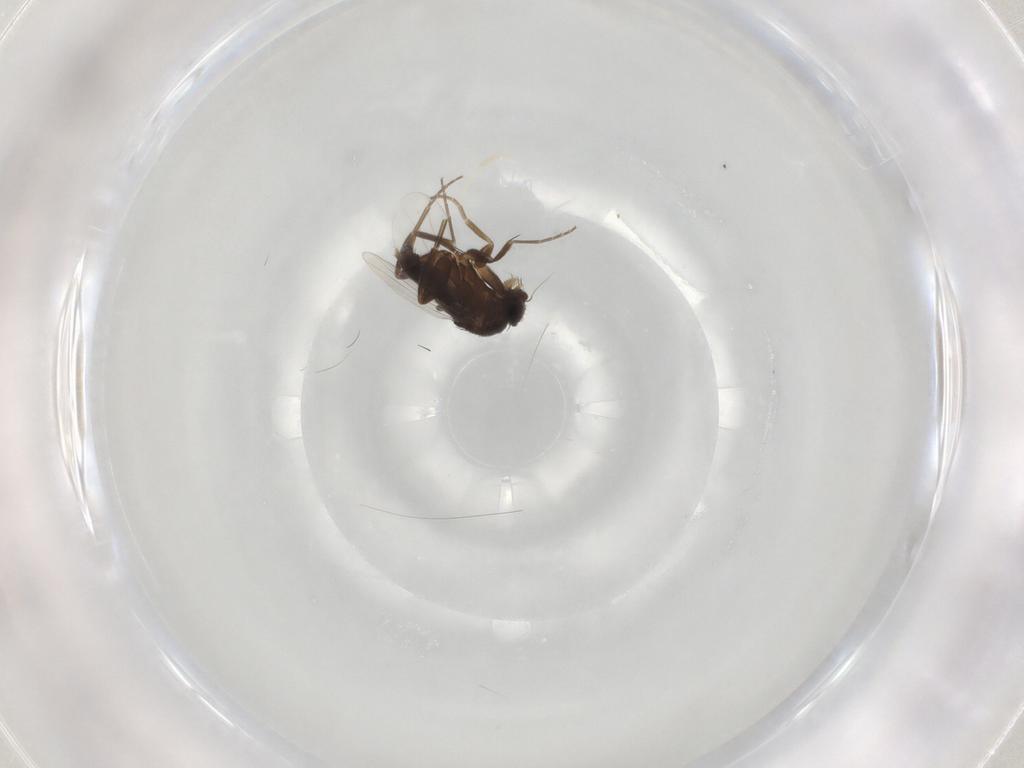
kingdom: Animalia
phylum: Arthropoda
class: Insecta
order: Diptera
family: Phoridae
